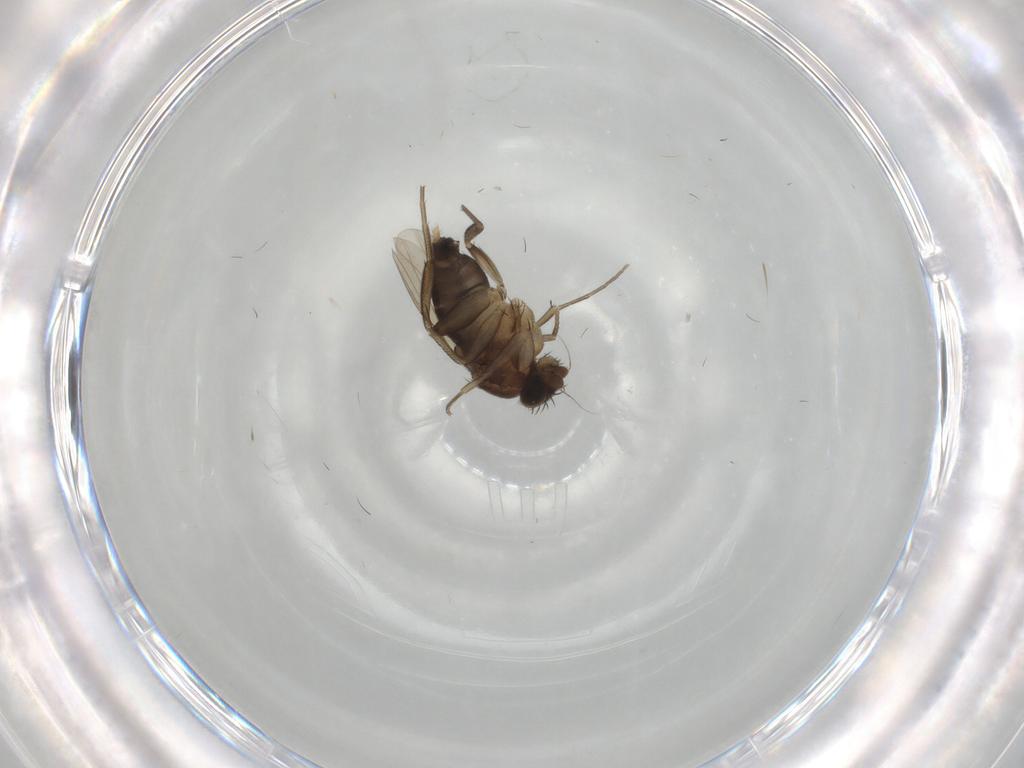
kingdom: Animalia
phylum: Arthropoda
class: Insecta
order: Diptera
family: Phoridae
